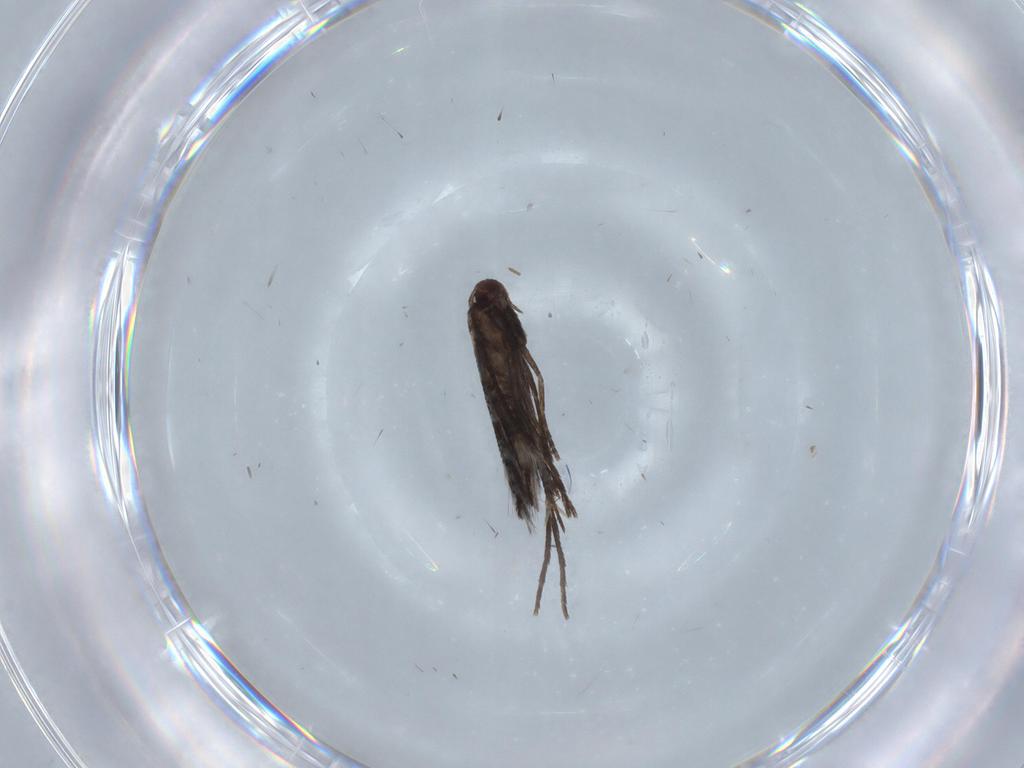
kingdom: Animalia
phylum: Arthropoda
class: Insecta
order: Lepidoptera
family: Gracillariidae
